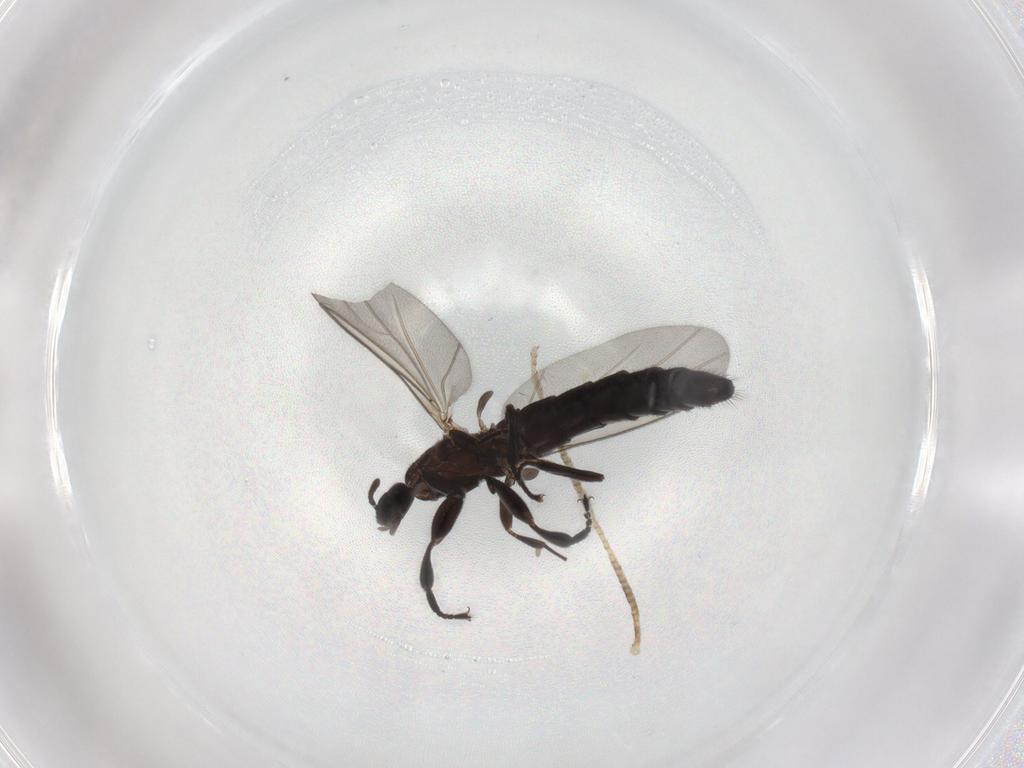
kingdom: Animalia
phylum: Arthropoda
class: Insecta
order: Diptera
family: Scatopsidae
